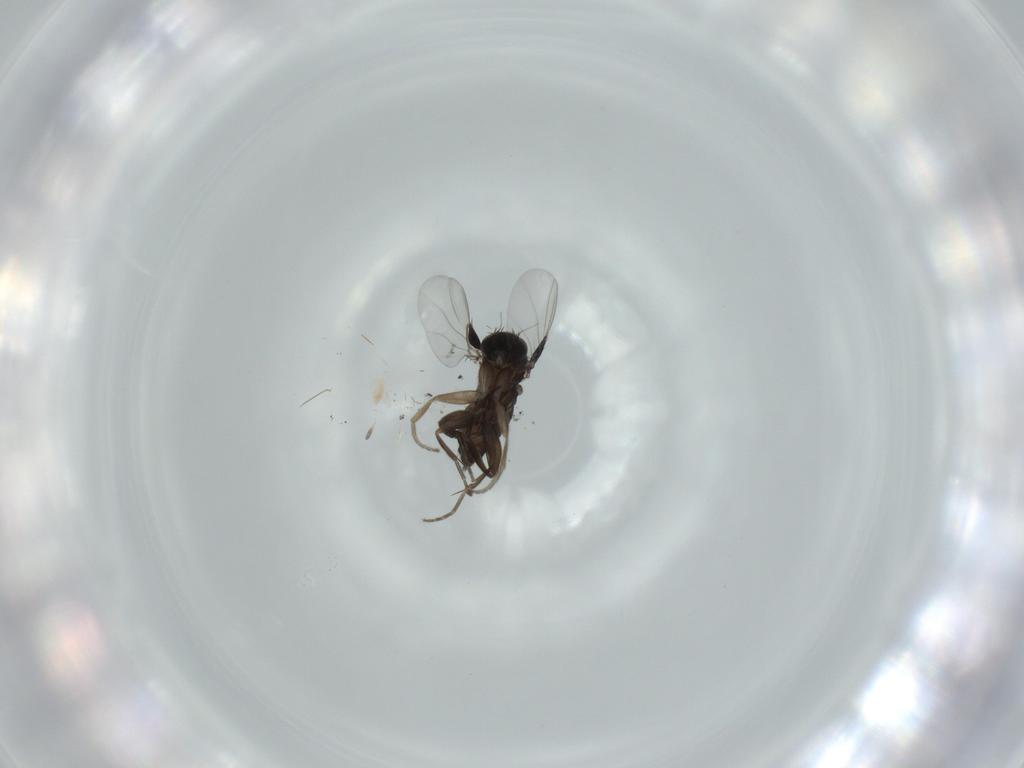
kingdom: Animalia
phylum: Arthropoda
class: Insecta
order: Diptera
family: Phoridae
